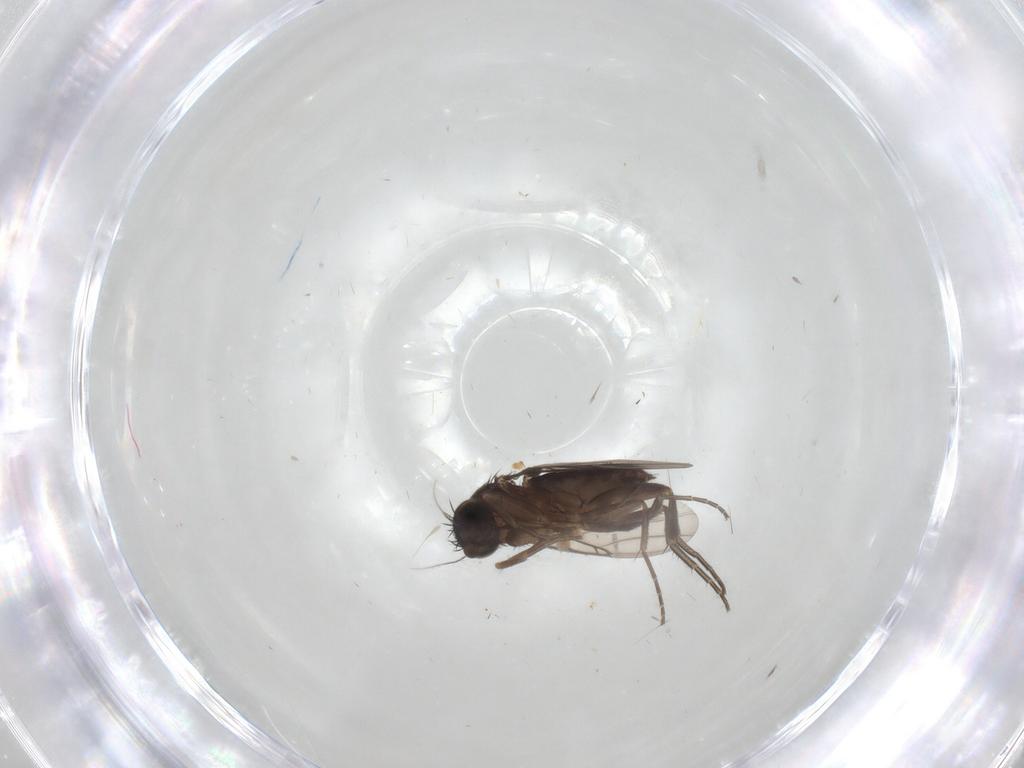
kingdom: Animalia
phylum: Arthropoda
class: Insecta
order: Diptera
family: Phoridae
